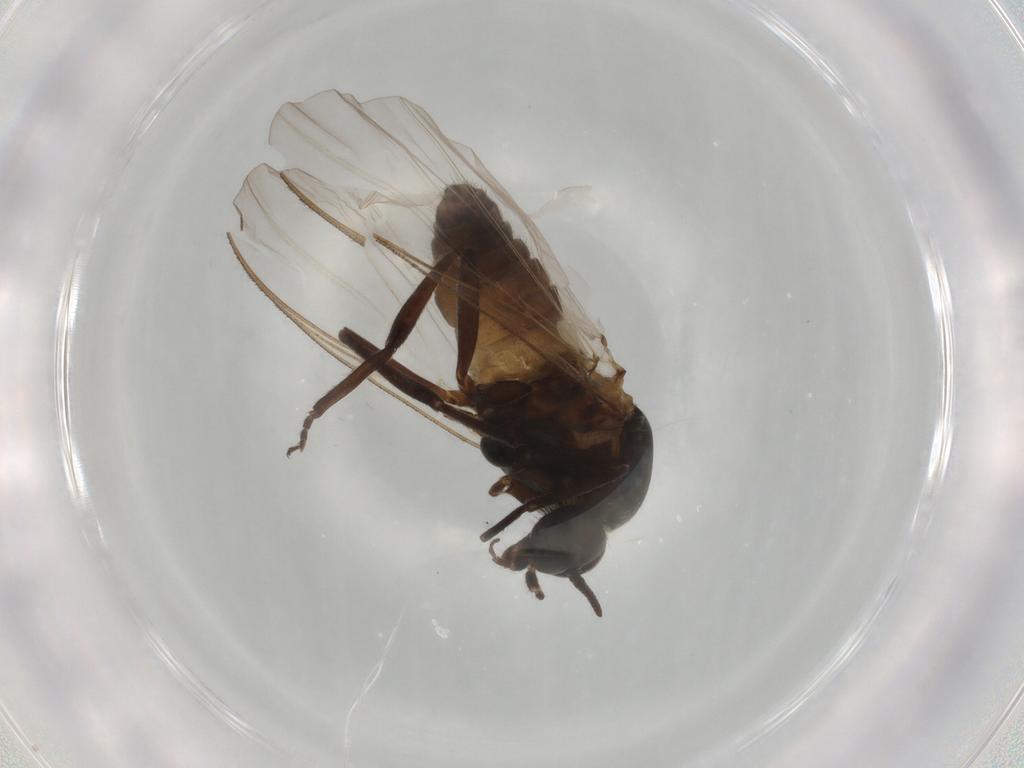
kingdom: Animalia
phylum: Arthropoda
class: Insecta
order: Diptera
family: Simuliidae
